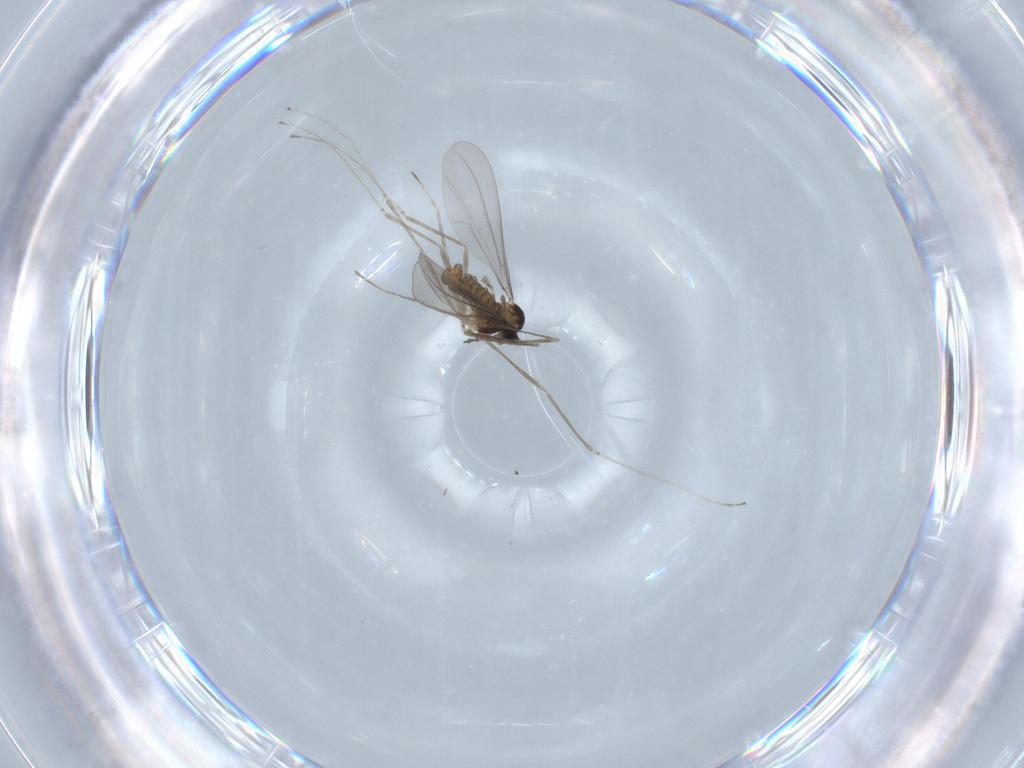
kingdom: Animalia
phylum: Arthropoda
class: Insecta
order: Diptera
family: Cecidomyiidae
